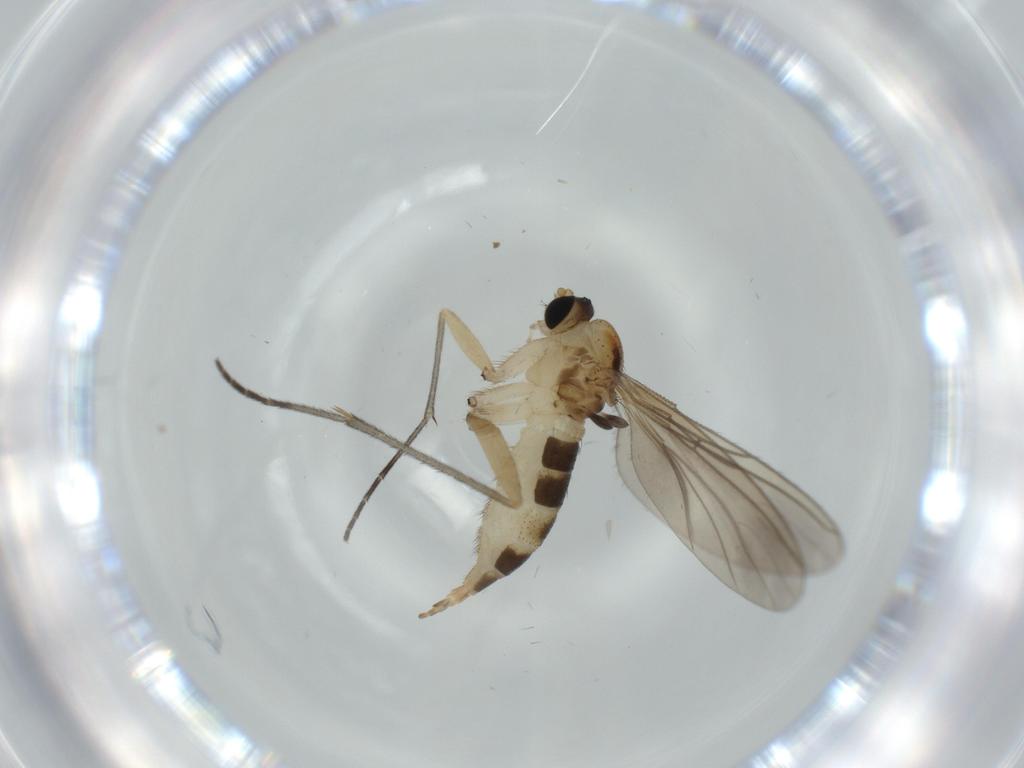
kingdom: Animalia
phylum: Arthropoda
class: Insecta
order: Diptera
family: Sciaridae
